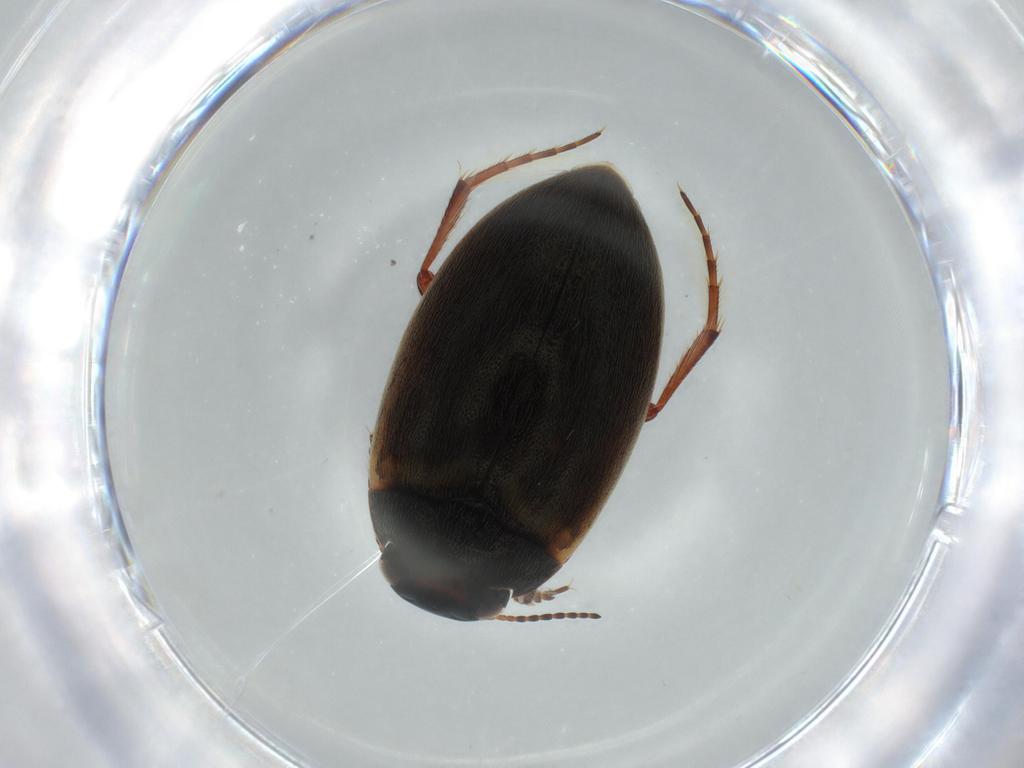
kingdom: Animalia
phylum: Arthropoda
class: Insecta
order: Coleoptera
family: Dytiscidae
